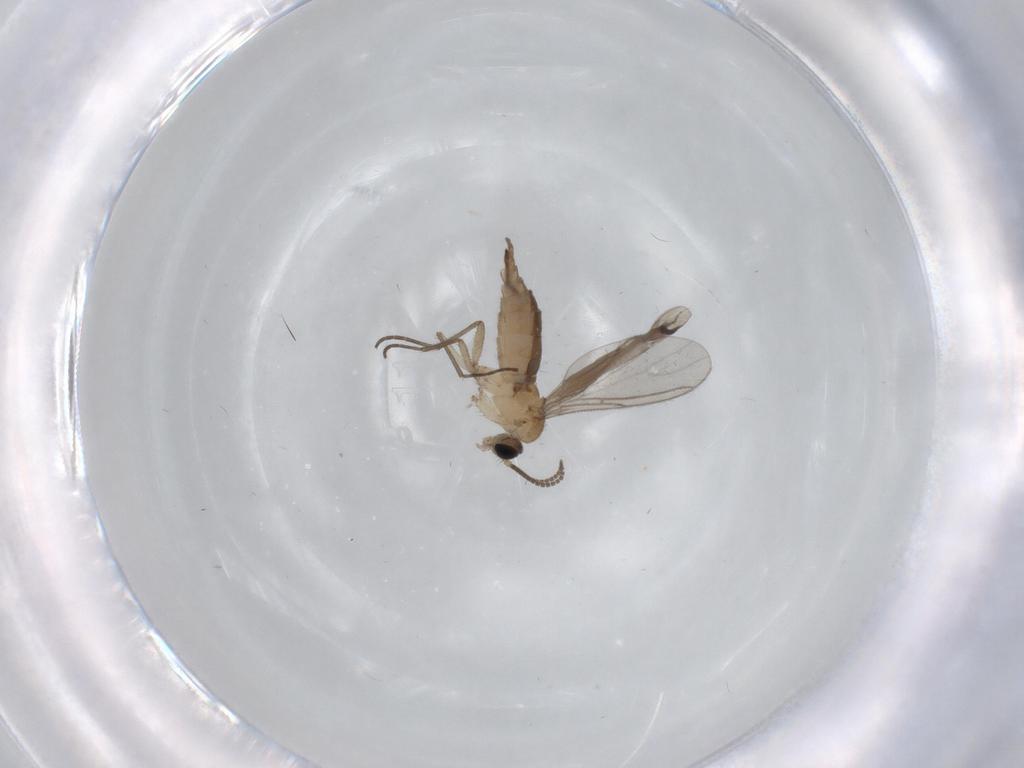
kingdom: Animalia
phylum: Arthropoda
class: Insecta
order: Diptera
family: Sciaridae
